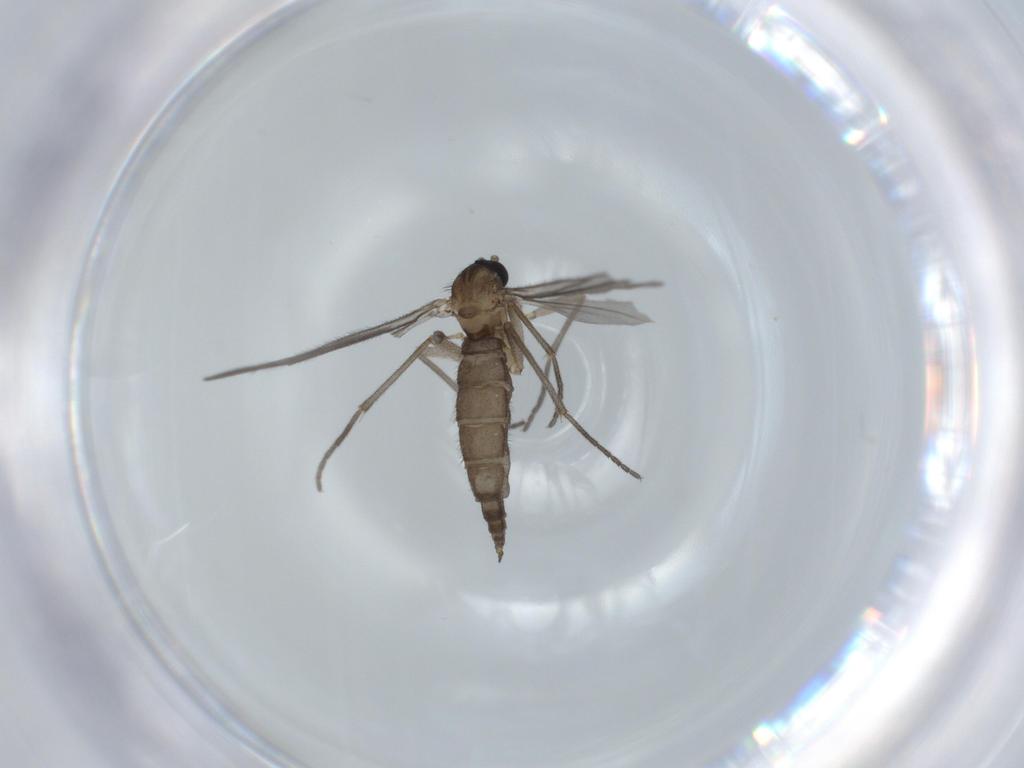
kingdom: Animalia
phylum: Arthropoda
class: Insecta
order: Diptera
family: Sciaridae
